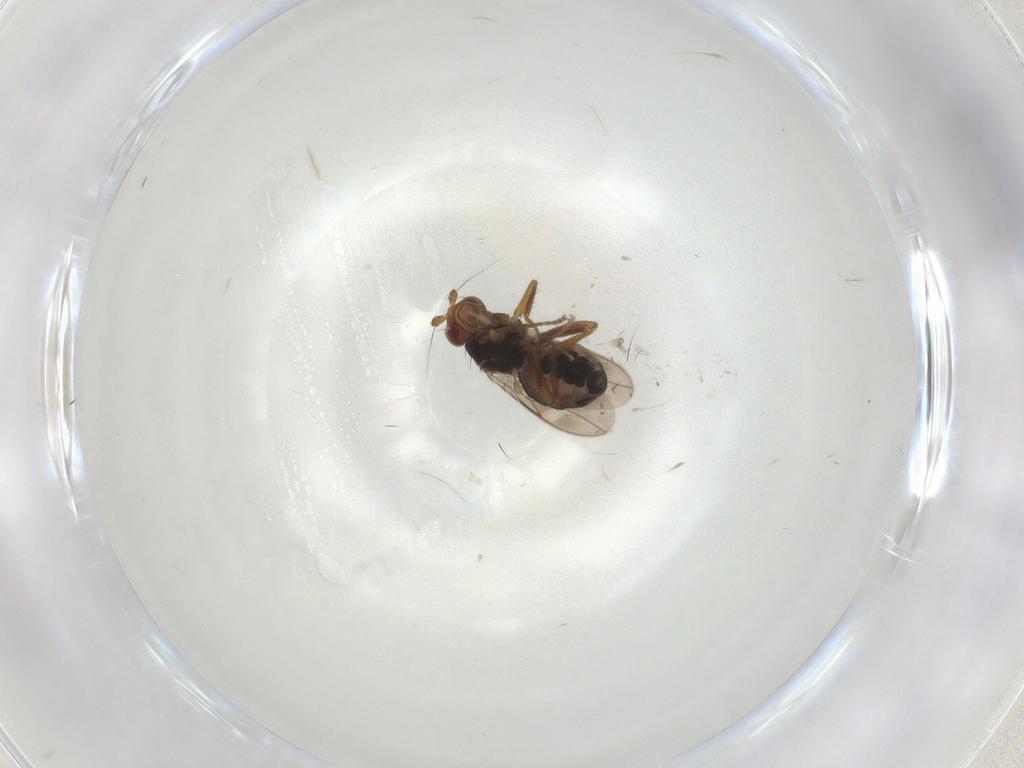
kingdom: Animalia
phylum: Arthropoda
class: Insecta
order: Diptera
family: Sphaeroceridae
